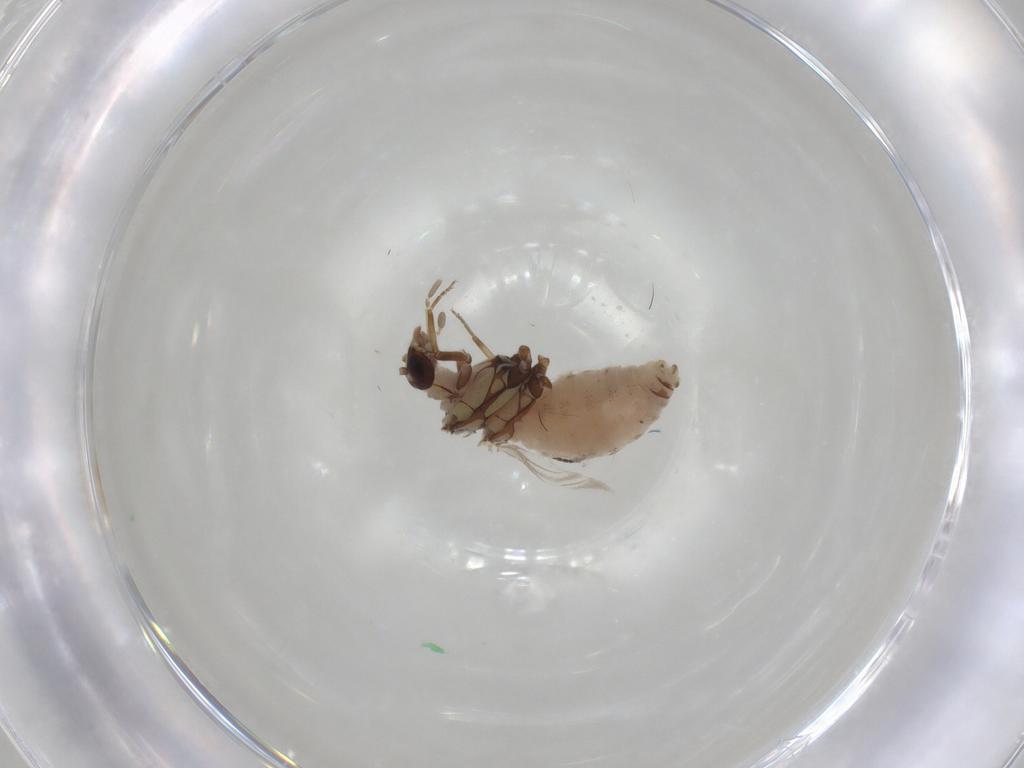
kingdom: Animalia
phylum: Arthropoda
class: Insecta
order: Neuroptera
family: Coniopterygidae
